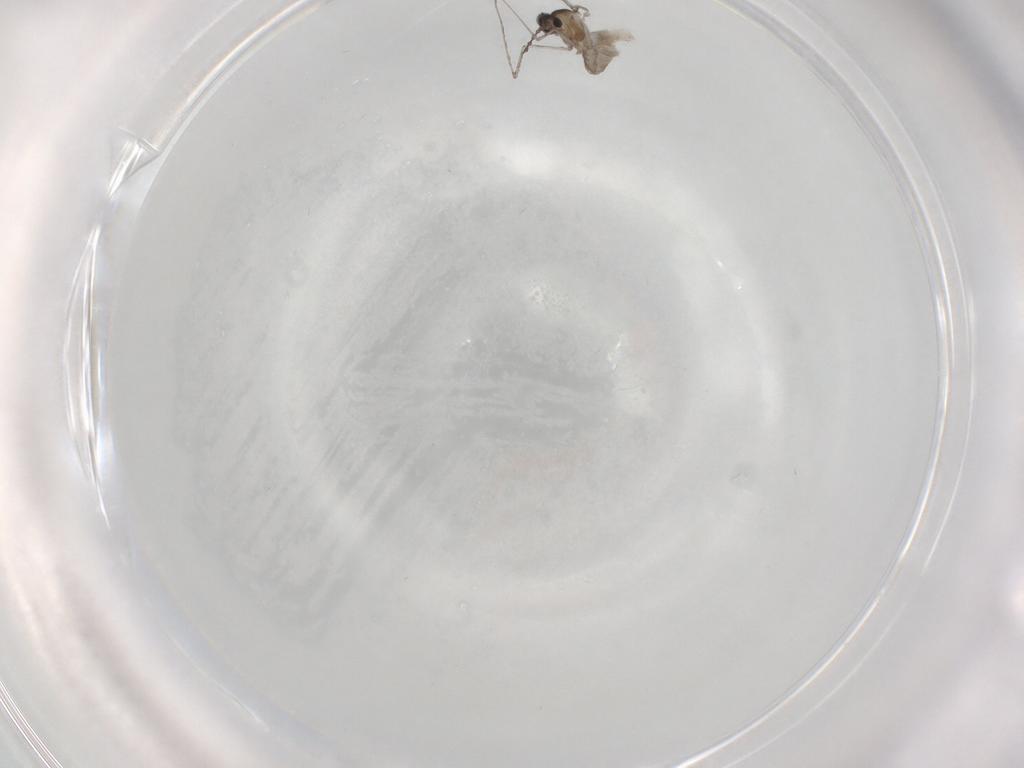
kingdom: Animalia
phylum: Arthropoda
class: Insecta
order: Diptera
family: Cecidomyiidae
